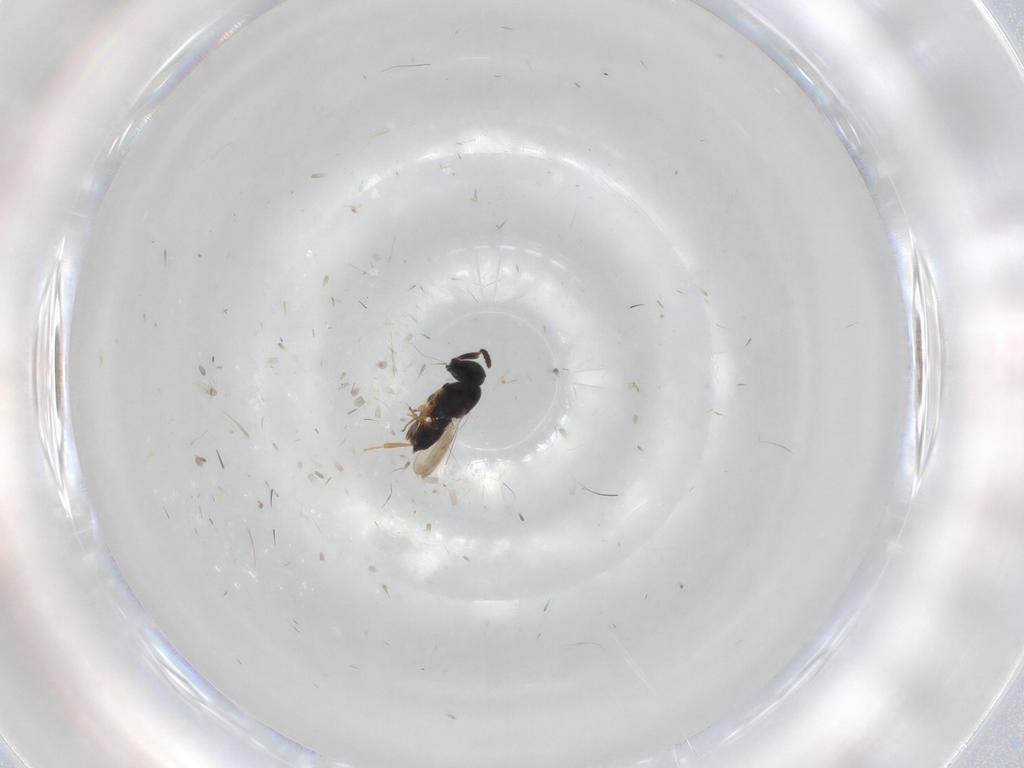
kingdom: Animalia
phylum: Arthropoda
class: Insecta
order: Hymenoptera
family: Scelionidae
